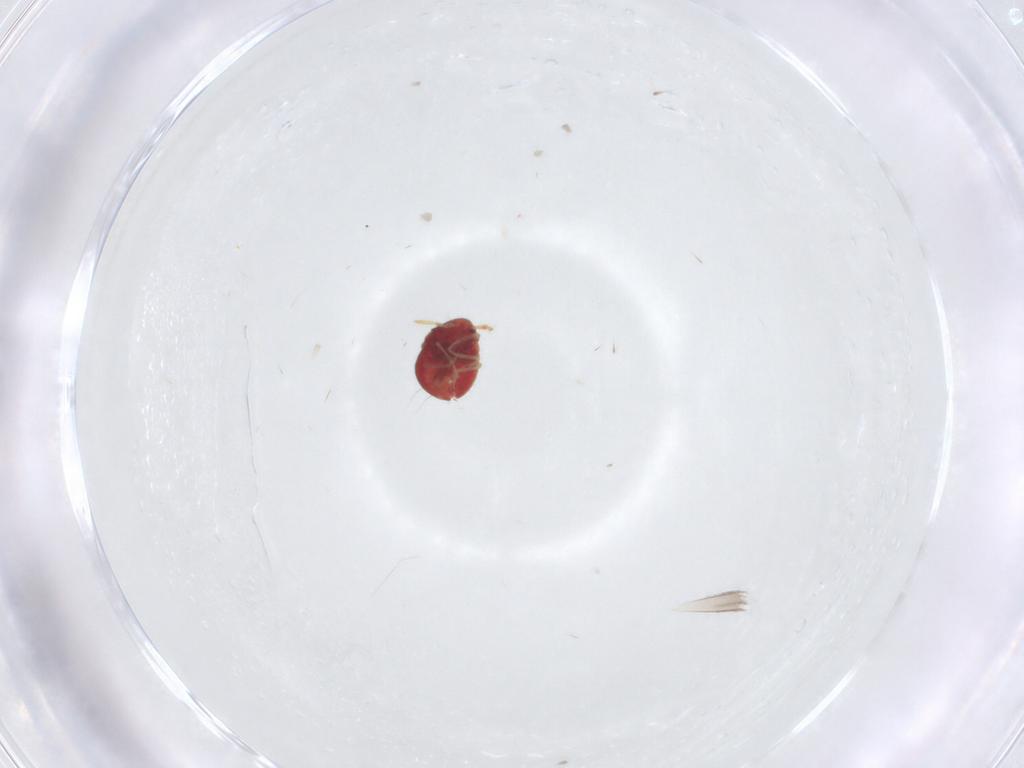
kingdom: Animalia
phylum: Arthropoda
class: Insecta
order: Hemiptera
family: Anthocoridae
